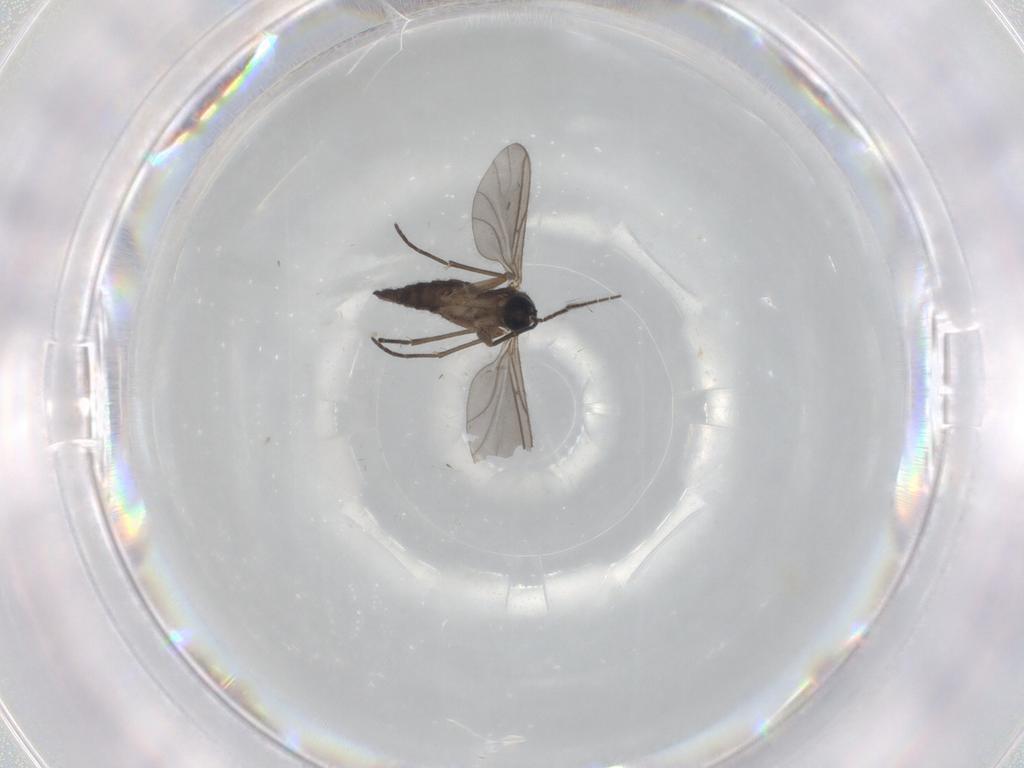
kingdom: Animalia
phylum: Arthropoda
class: Insecta
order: Diptera
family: Sciaridae
